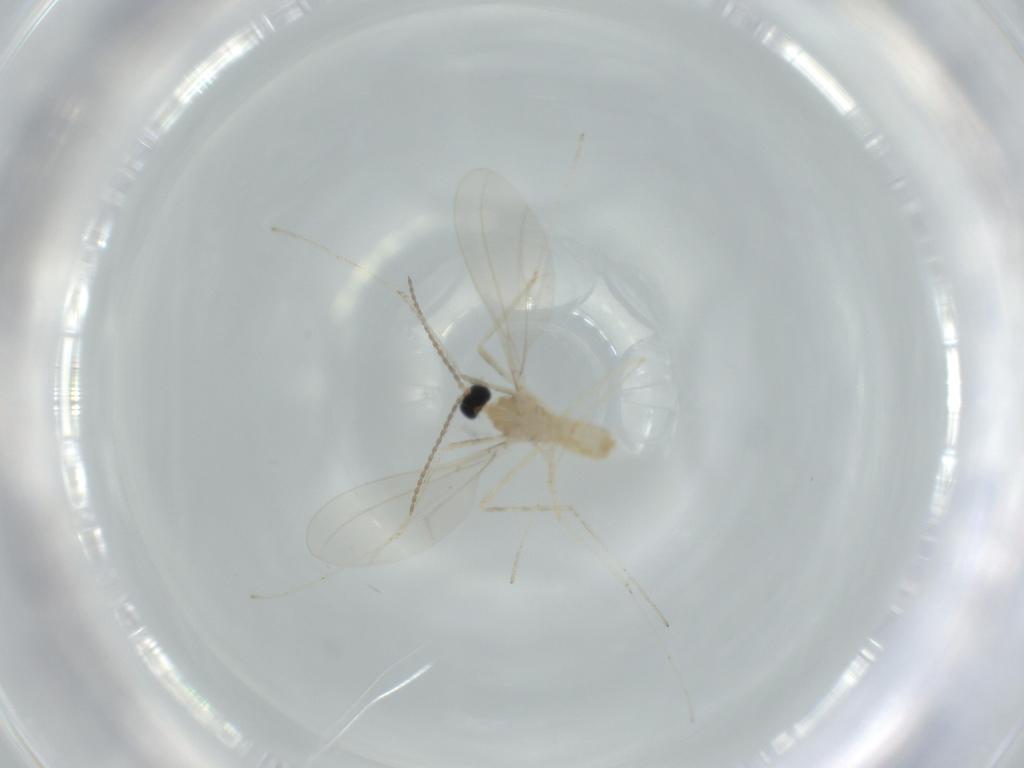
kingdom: Animalia
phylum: Arthropoda
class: Insecta
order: Diptera
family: Cecidomyiidae
